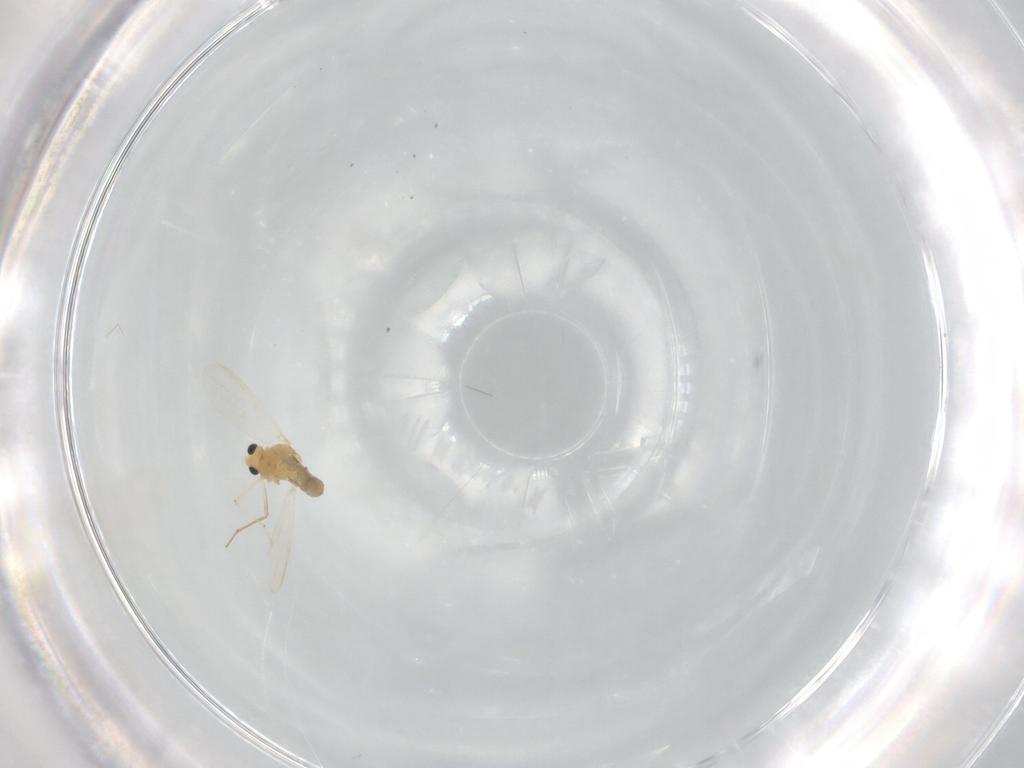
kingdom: Animalia
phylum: Arthropoda
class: Insecta
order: Diptera
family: Chironomidae
